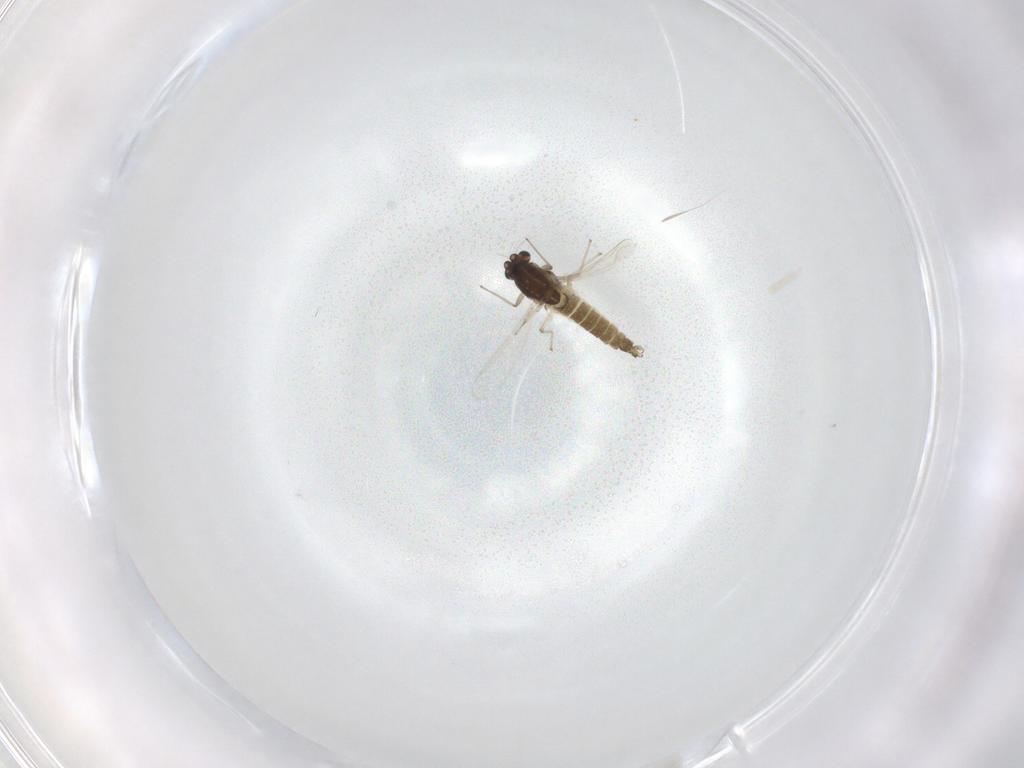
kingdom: Animalia
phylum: Arthropoda
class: Insecta
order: Diptera
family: Chironomidae
